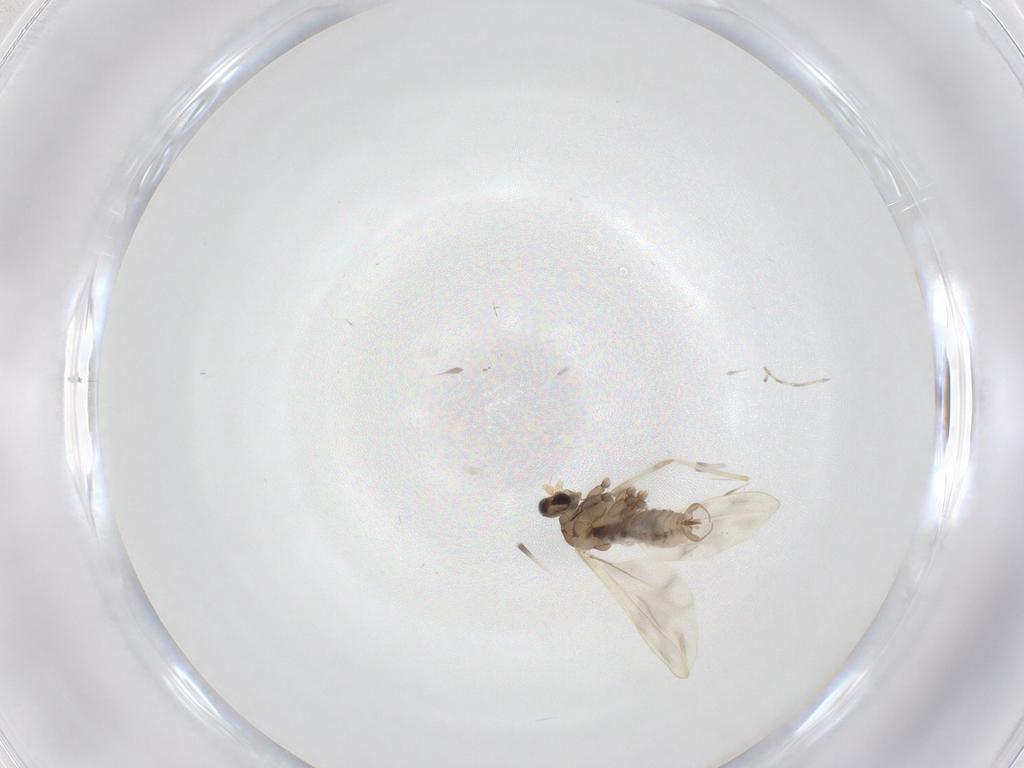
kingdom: Animalia
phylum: Arthropoda
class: Insecta
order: Diptera
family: Cecidomyiidae
